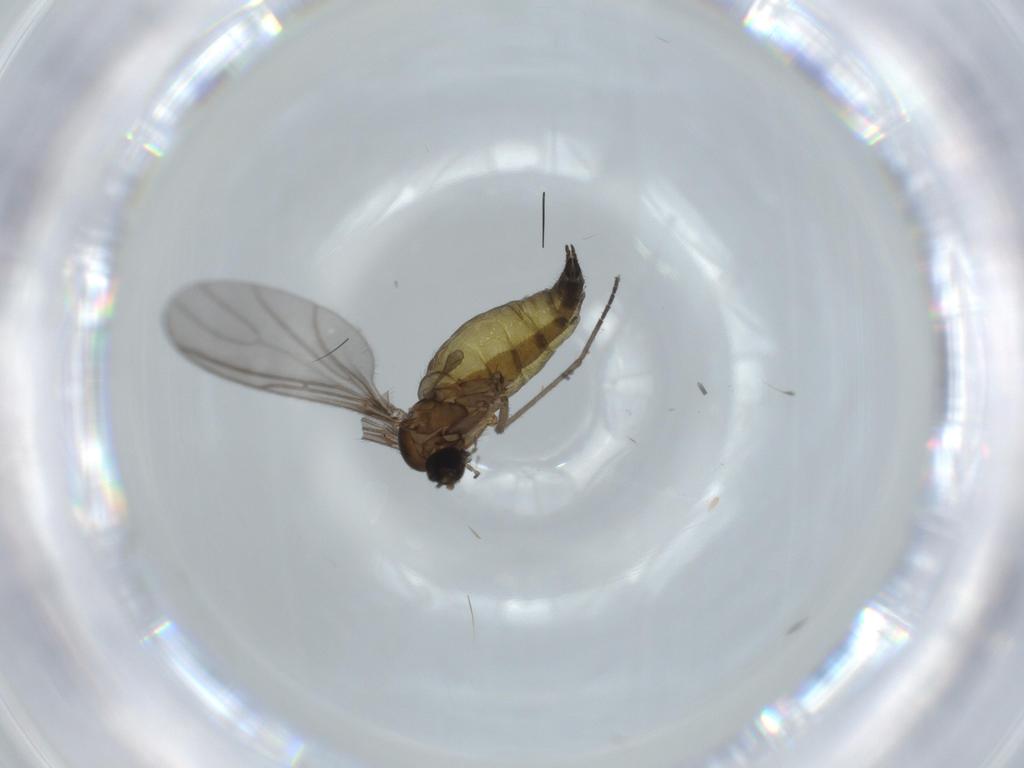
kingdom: Animalia
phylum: Arthropoda
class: Insecta
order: Diptera
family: Sciaridae
